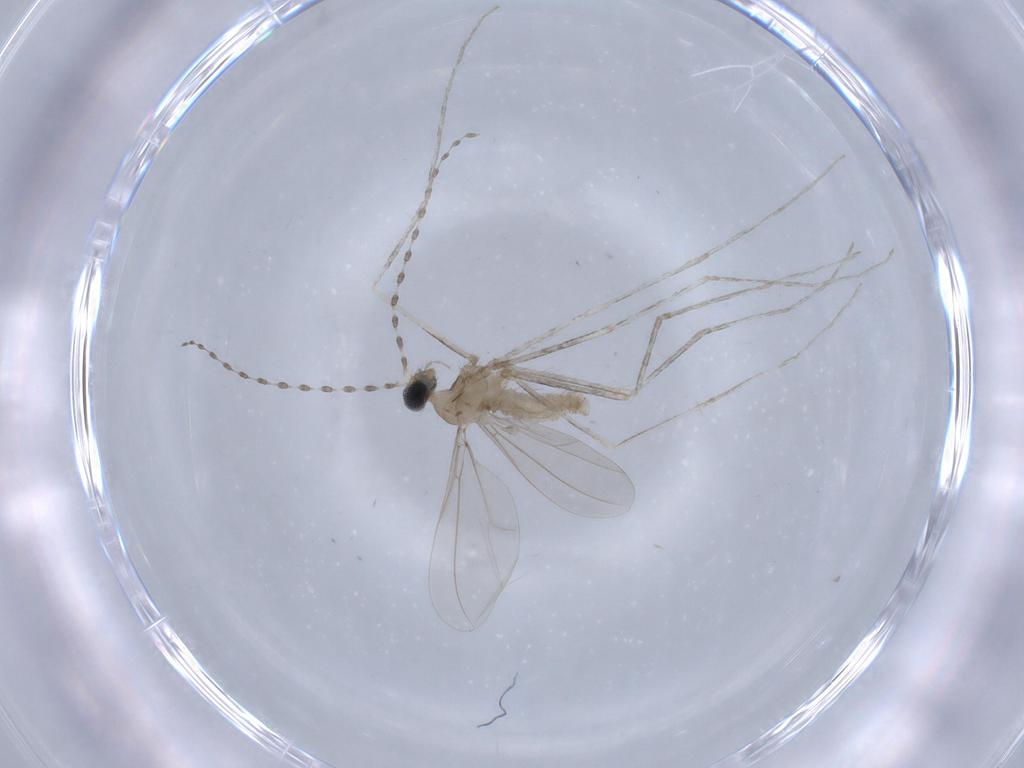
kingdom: Animalia
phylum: Arthropoda
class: Insecta
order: Diptera
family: Cecidomyiidae
